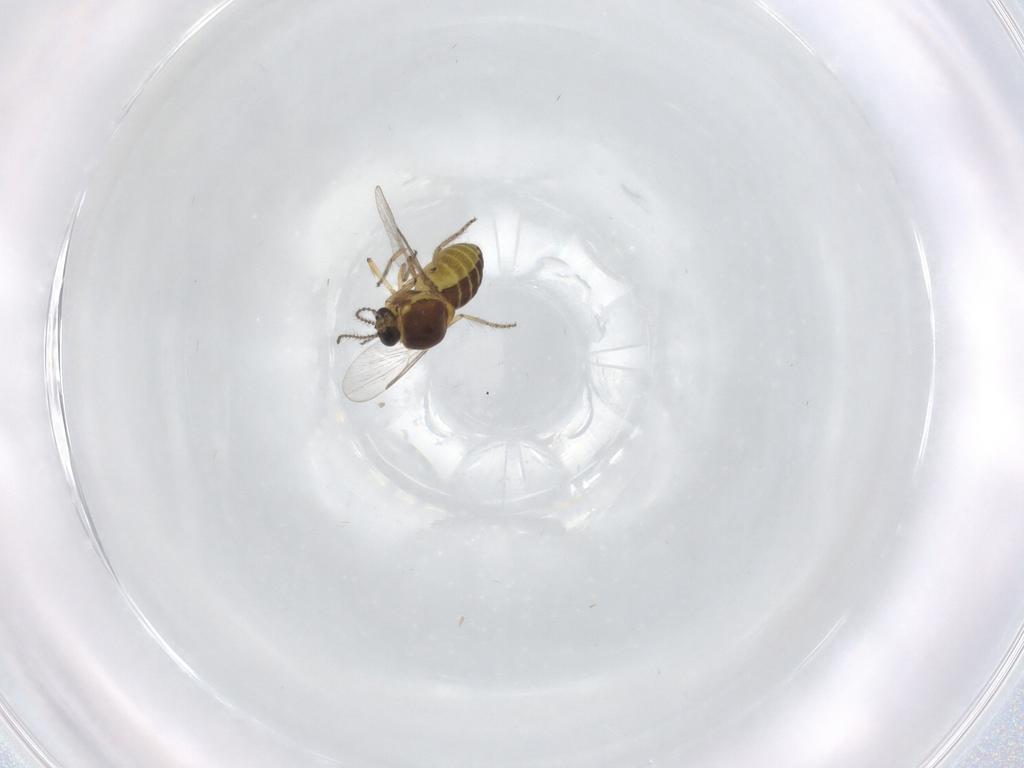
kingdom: Animalia
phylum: Arthropoda
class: Insecta
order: Diptera
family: Ceratopogonidae
